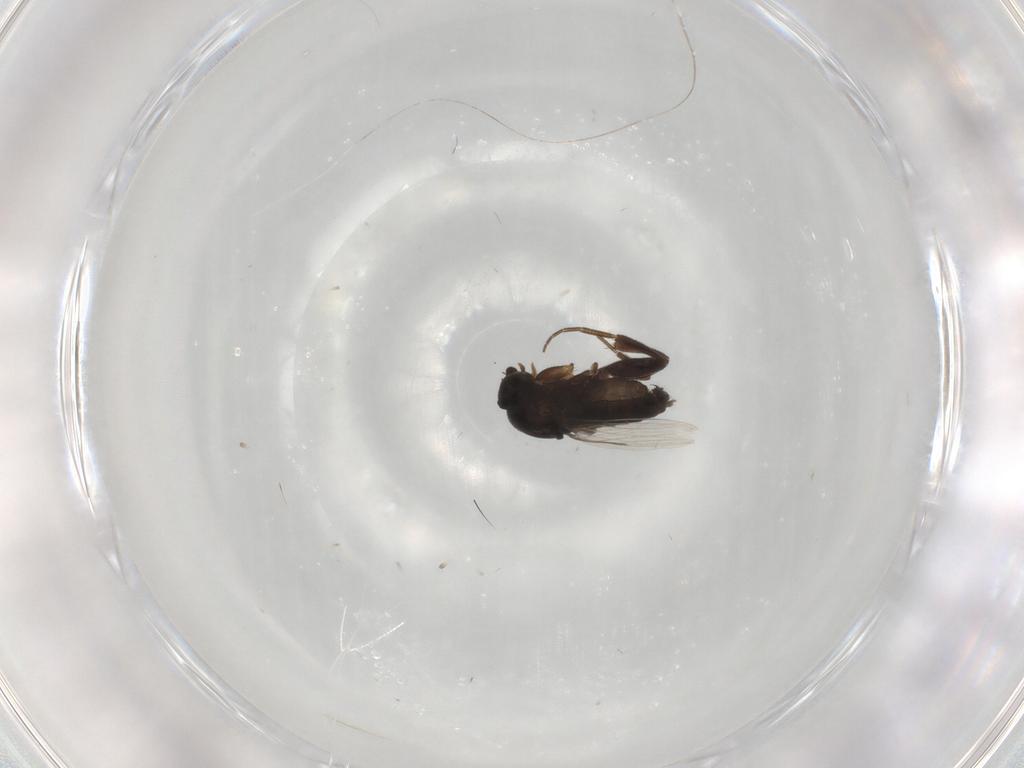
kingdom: Animalia
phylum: Arthropoda
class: Insecta
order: Diptera
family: Phoridae
